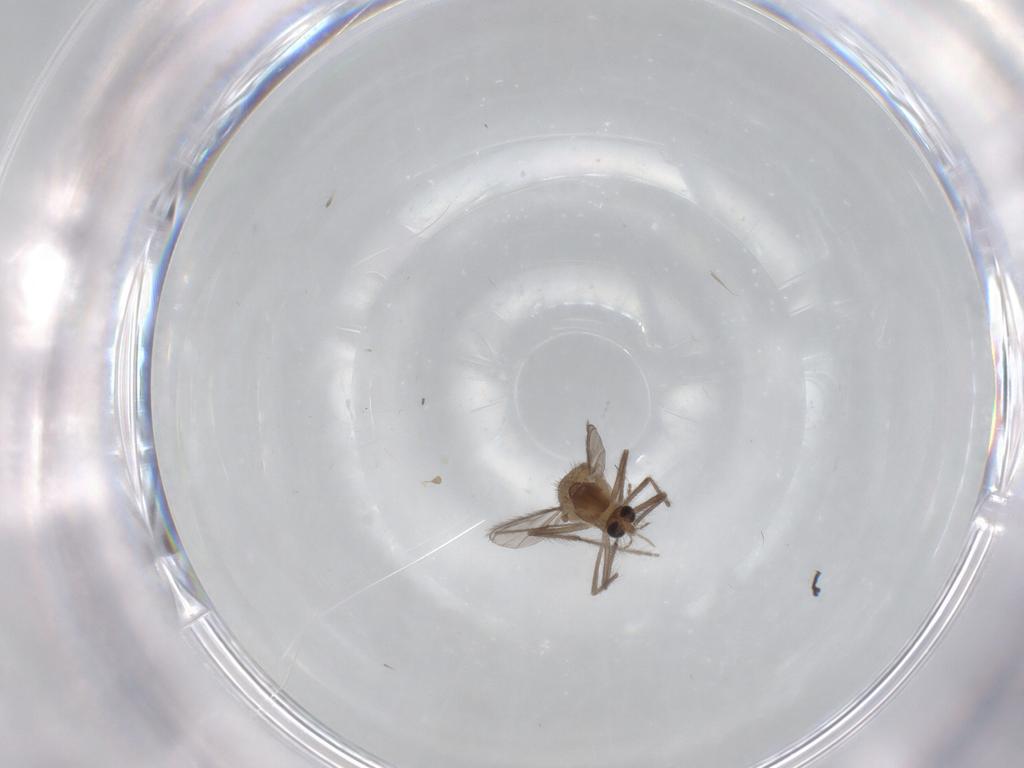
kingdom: Animalia
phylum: Arthropoda
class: Insecta
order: Diptera
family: Chironomidae
